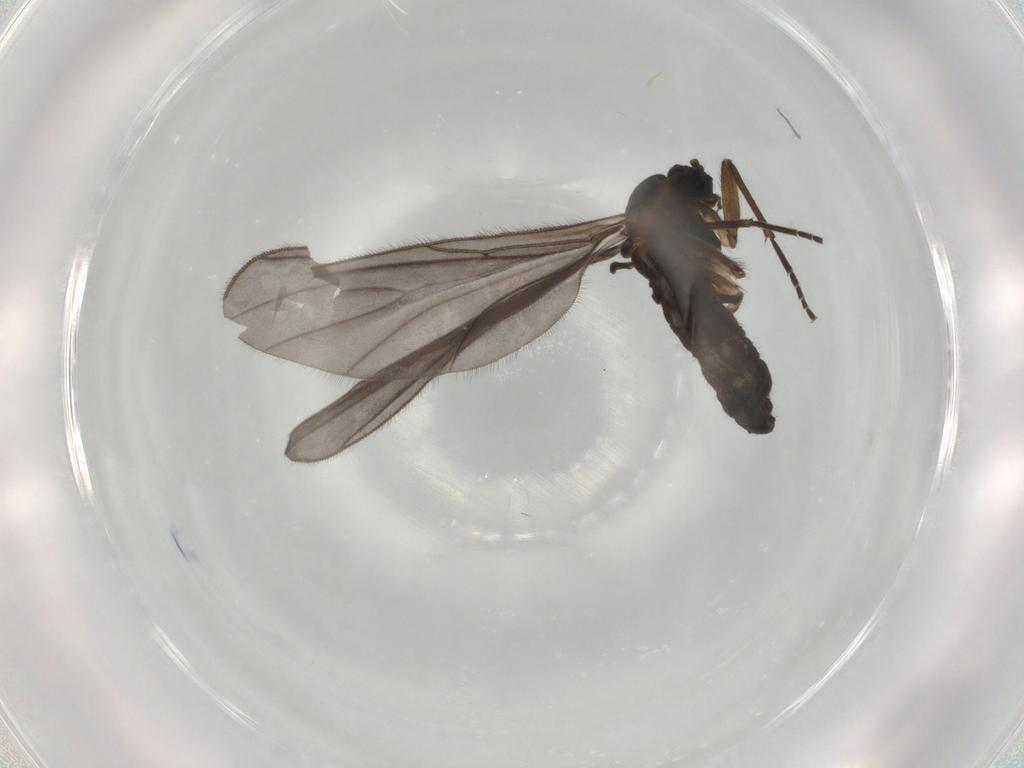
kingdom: Animalia
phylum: Arthropoda
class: Insecta
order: Diptera
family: Sciaridae
